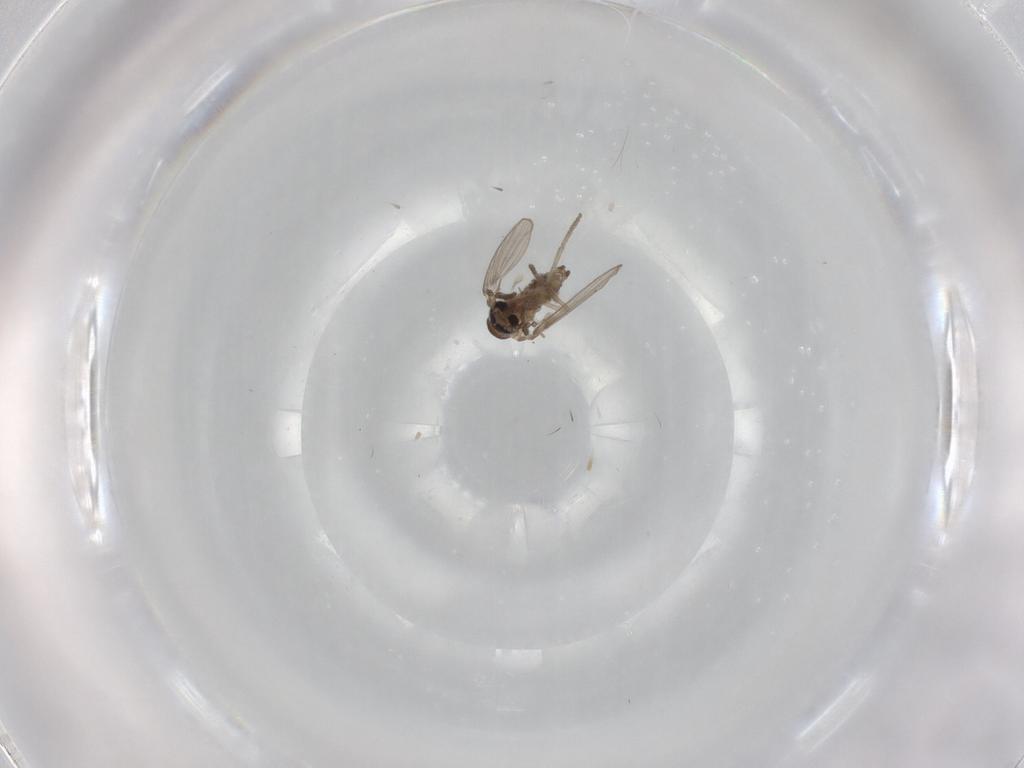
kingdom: Animalia
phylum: Arthropoda
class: Insecta
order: Diptera
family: Psychodidae
